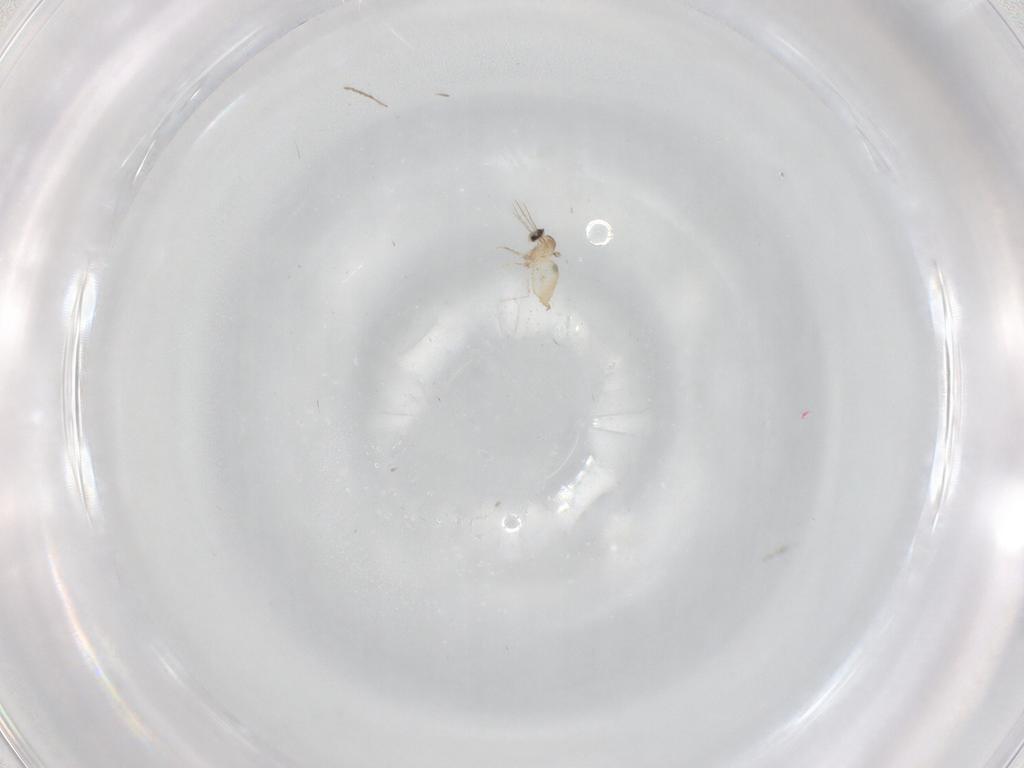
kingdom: Animalia
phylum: Arthropoda
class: Insecta
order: Diptera
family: Cecidomyiidae
